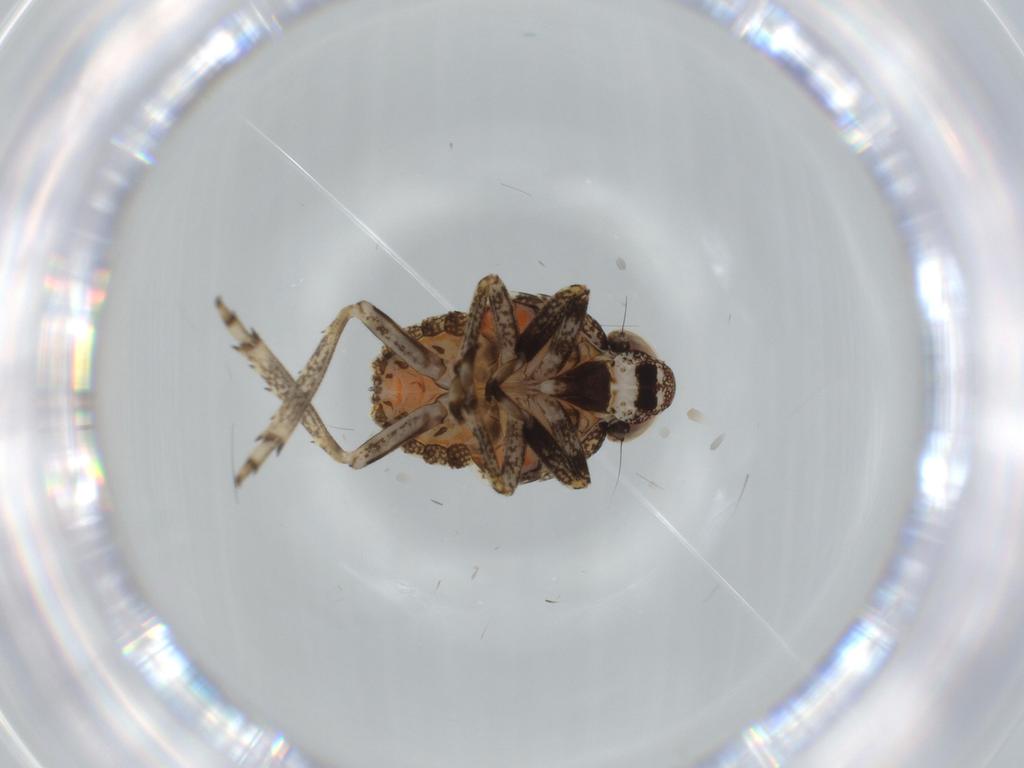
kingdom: Animalia
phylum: Arthropoda
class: Insecta
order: Hemiptera
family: Issidae
